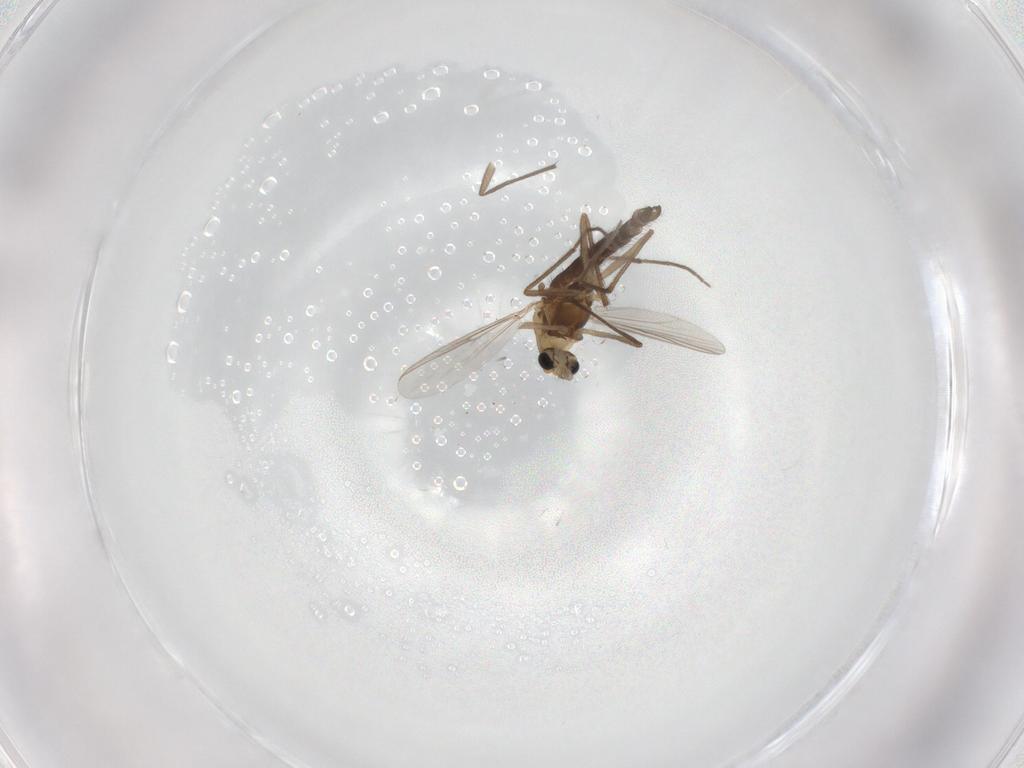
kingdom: Animalia
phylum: Arthropoda
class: Insecta
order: Diptera
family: Chironomidae
